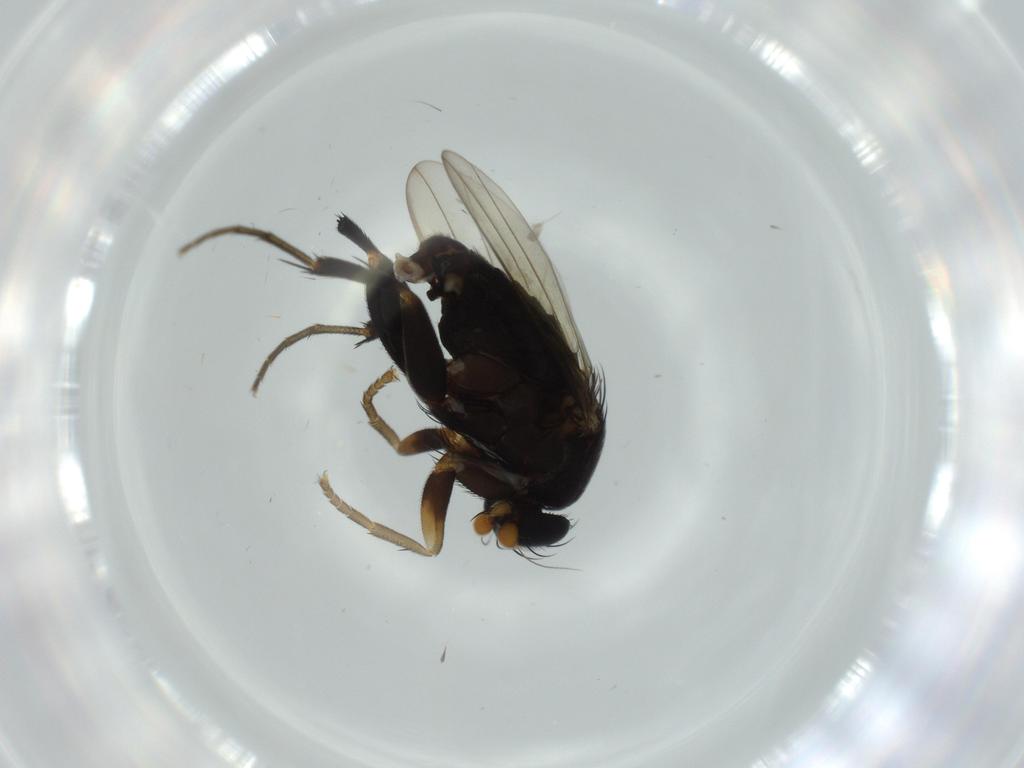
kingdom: Animalia
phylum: Arthropoda
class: Insecta
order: Diptera
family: Phoridae
